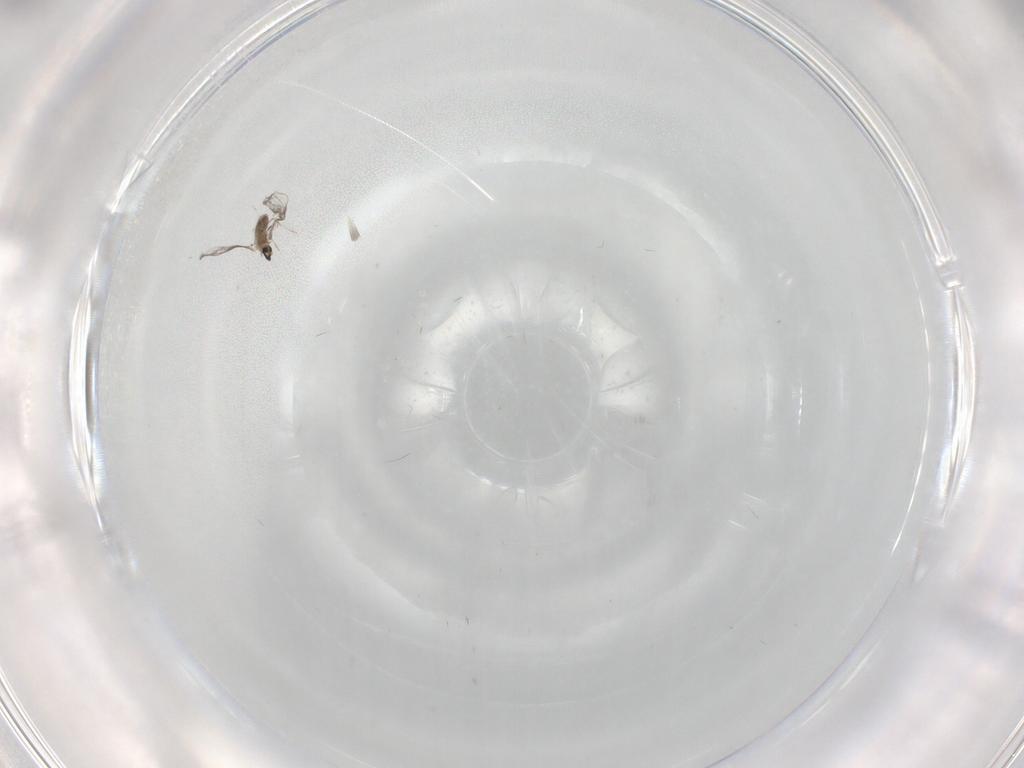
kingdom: Animalia
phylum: Arthropoda
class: Insecta
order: Diptera
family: Cecidomyiidae
